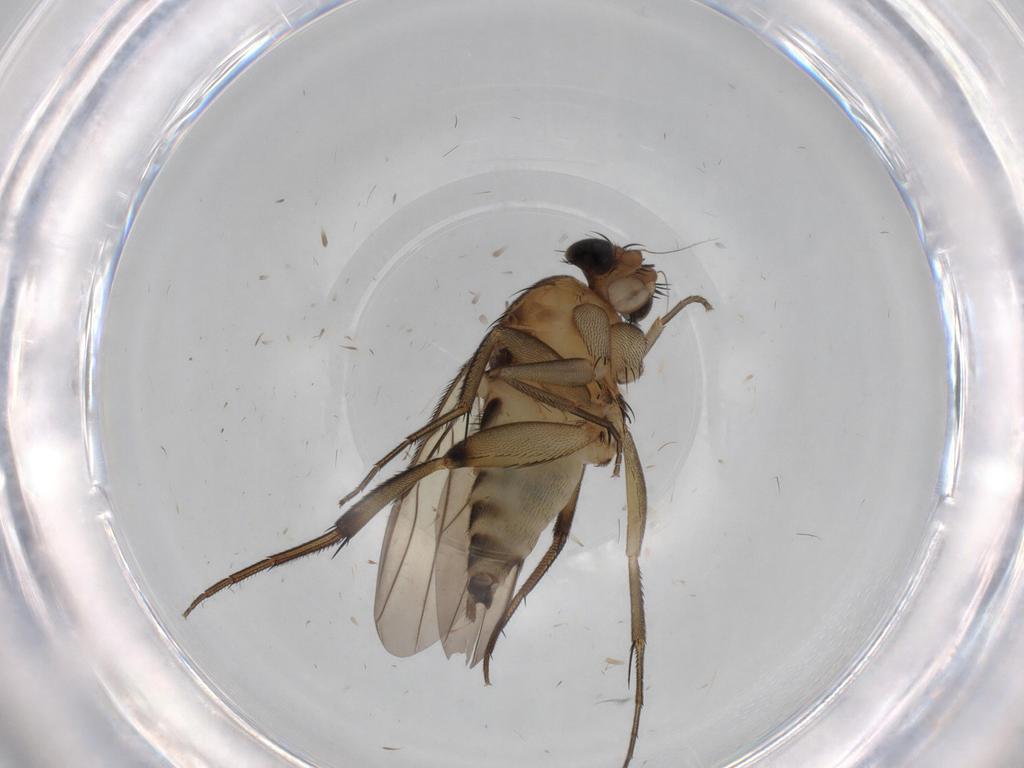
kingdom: Animalia
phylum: Arthropoda
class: Insecta
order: Diptera
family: Phoridae
